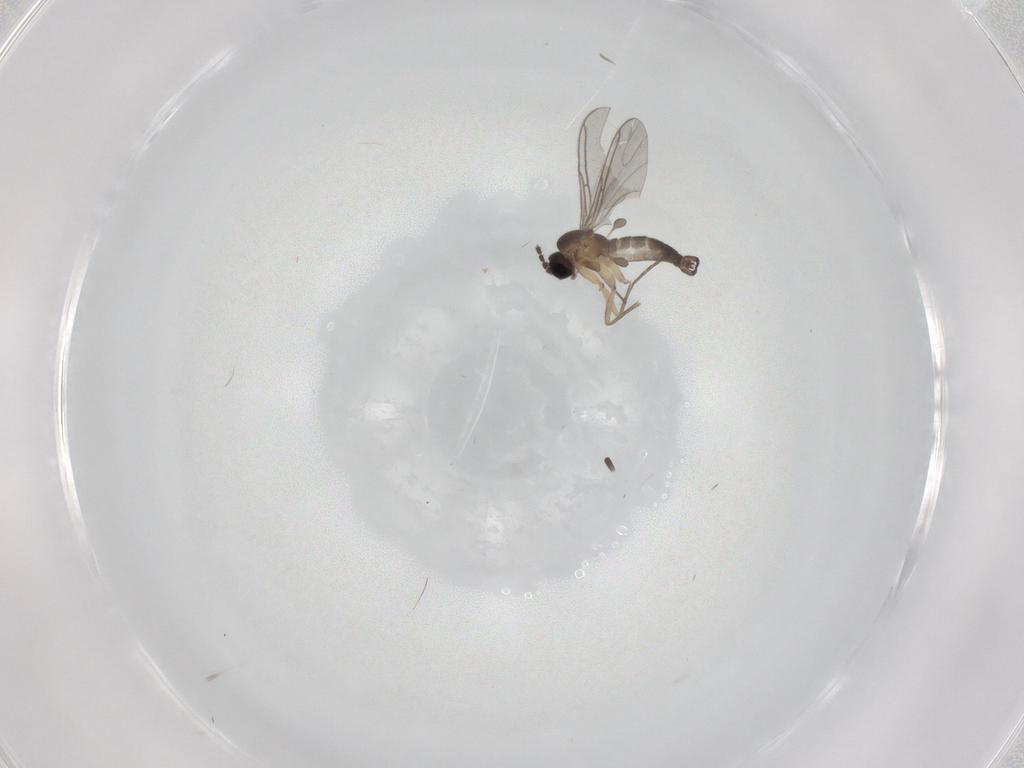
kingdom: Animalia
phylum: Arthropoda
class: Insecta
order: Diptera
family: Sciaridae
